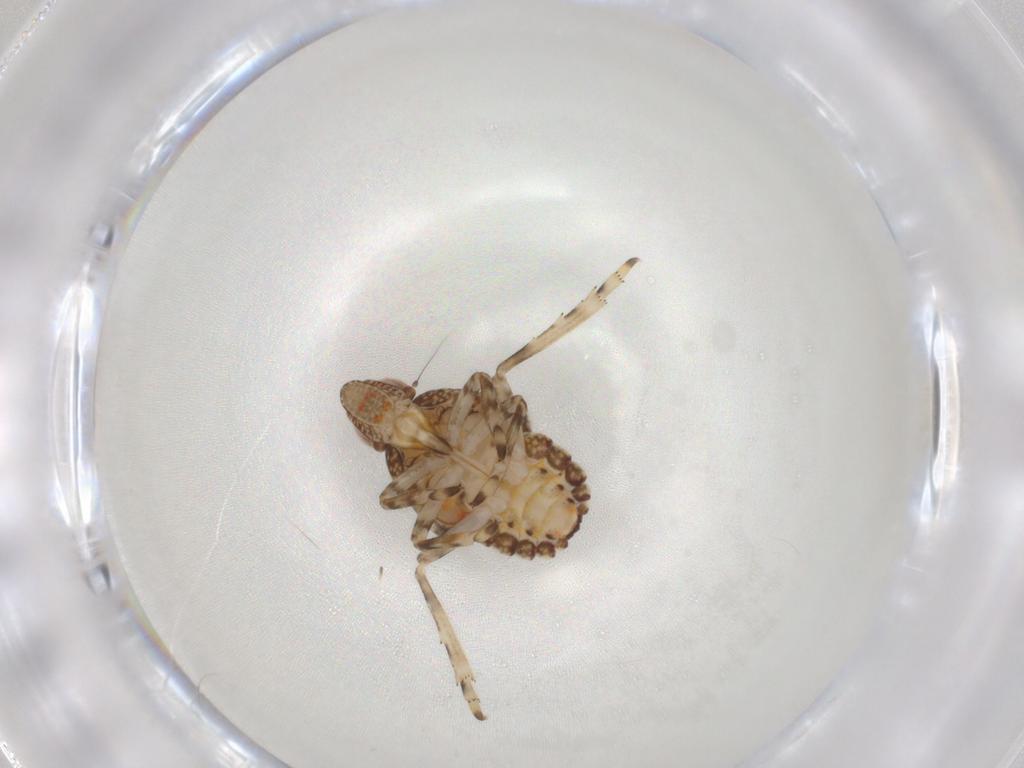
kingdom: Animalia
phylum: Arthropoda
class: Insecta
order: Hemiptera
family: Tropiduchidae
